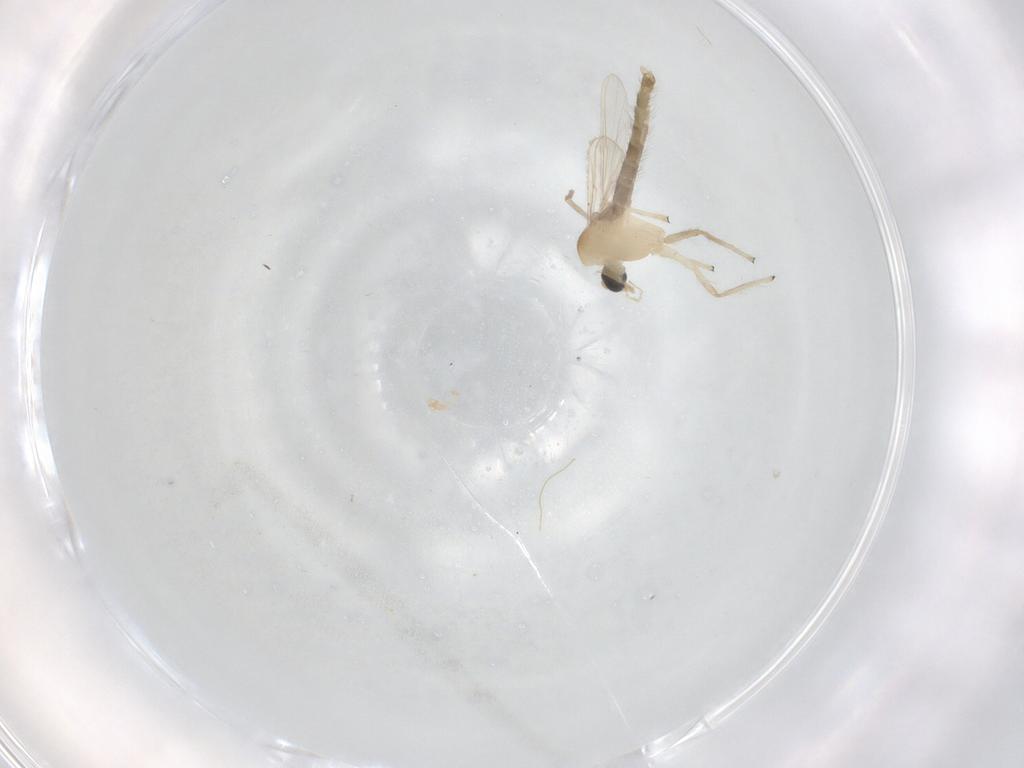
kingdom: Animalia
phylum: Arthropoda
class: Insecta
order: Diptera
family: Chironomidae
